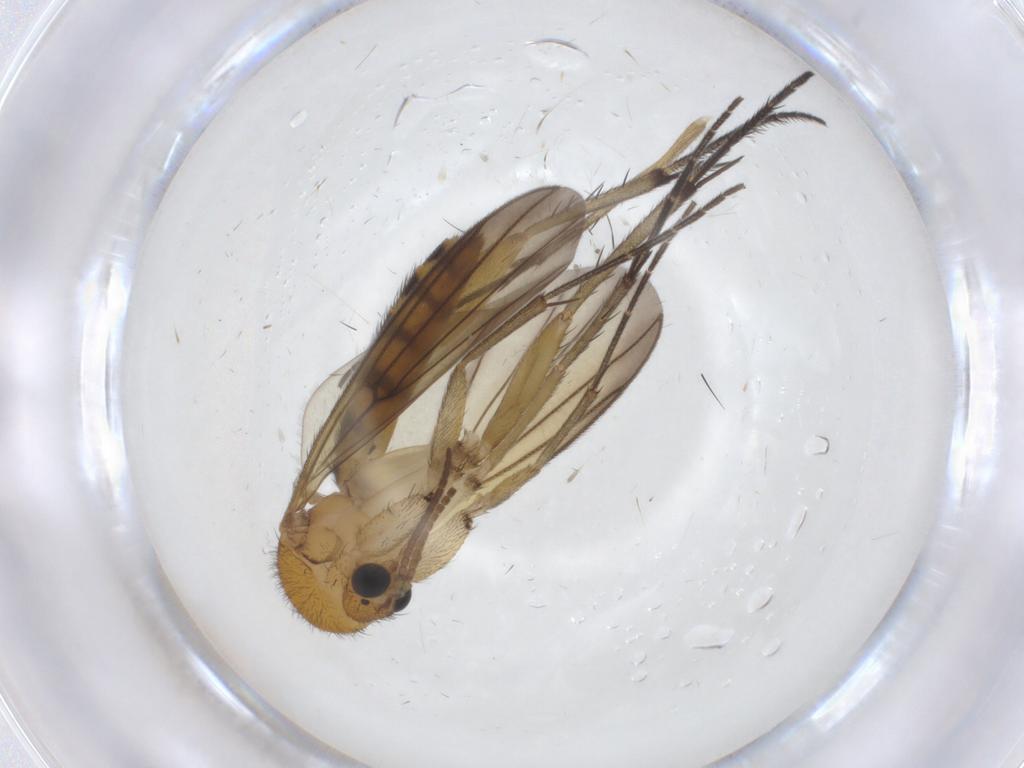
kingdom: Animalia
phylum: Arthropoda
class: Insecta
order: Diptera
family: Mycetophilidae
